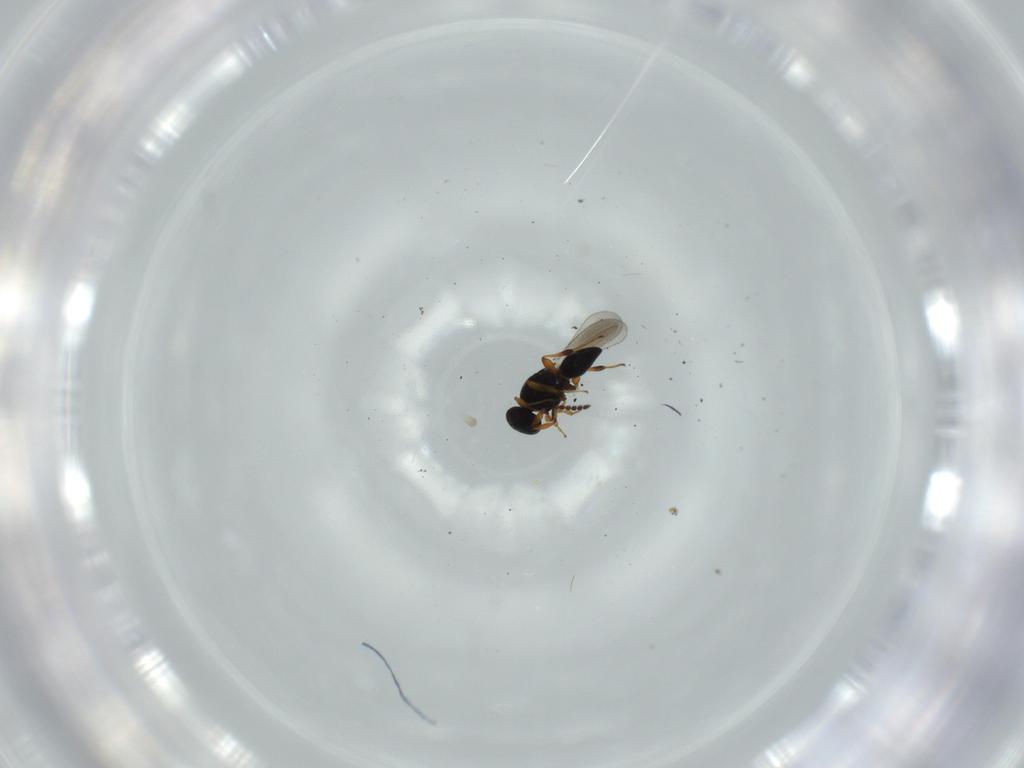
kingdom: Animalia
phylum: Arthropoda
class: Insecta
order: Hymenoptera
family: Platygastridae
